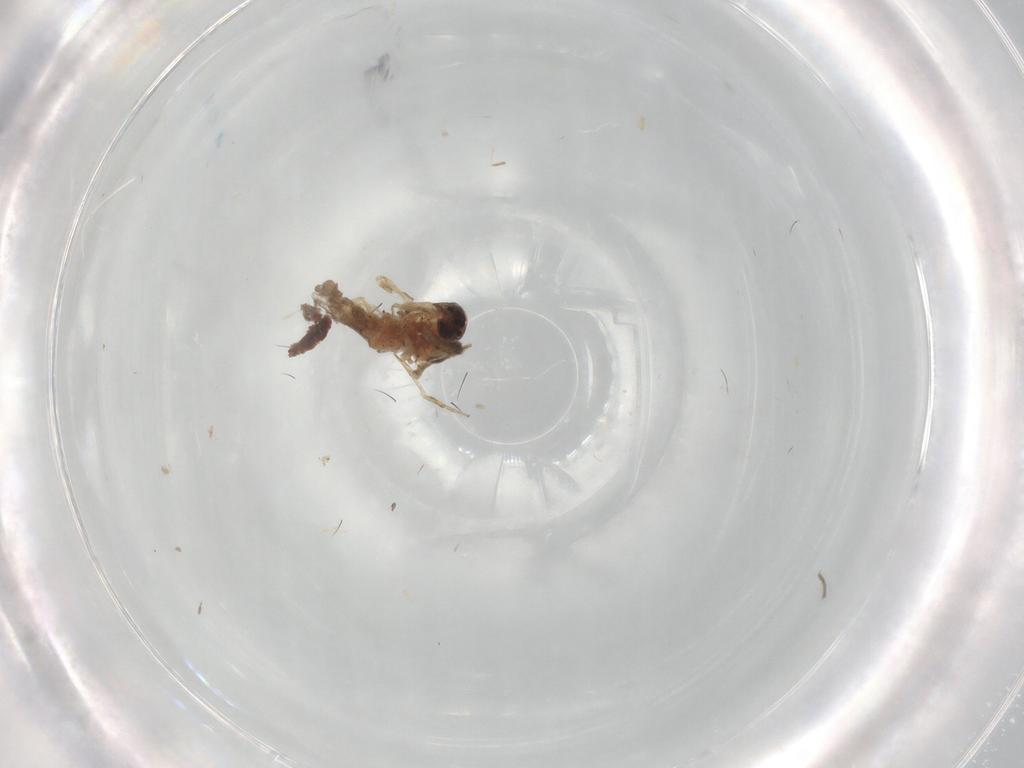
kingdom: Animalia
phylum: Arthropoda
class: Insecta
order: Diptera
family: Ceratopogonidae
